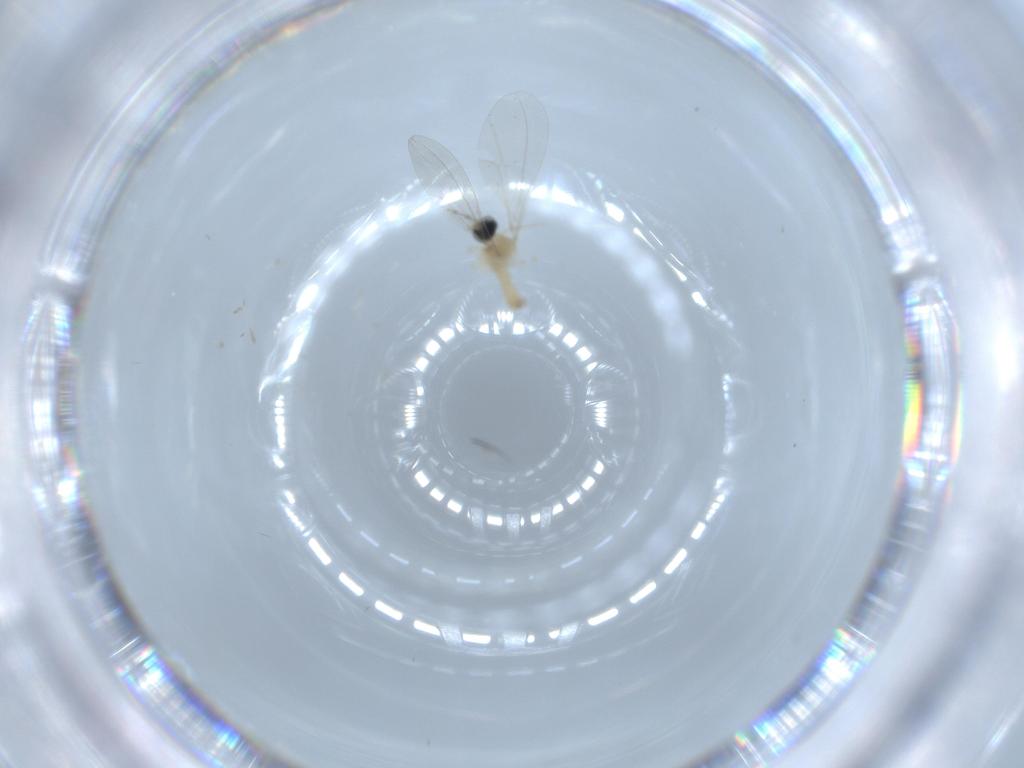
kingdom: Animalia
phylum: Arthropoda
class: Insecta
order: Diptera
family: Cecidomyiidae
